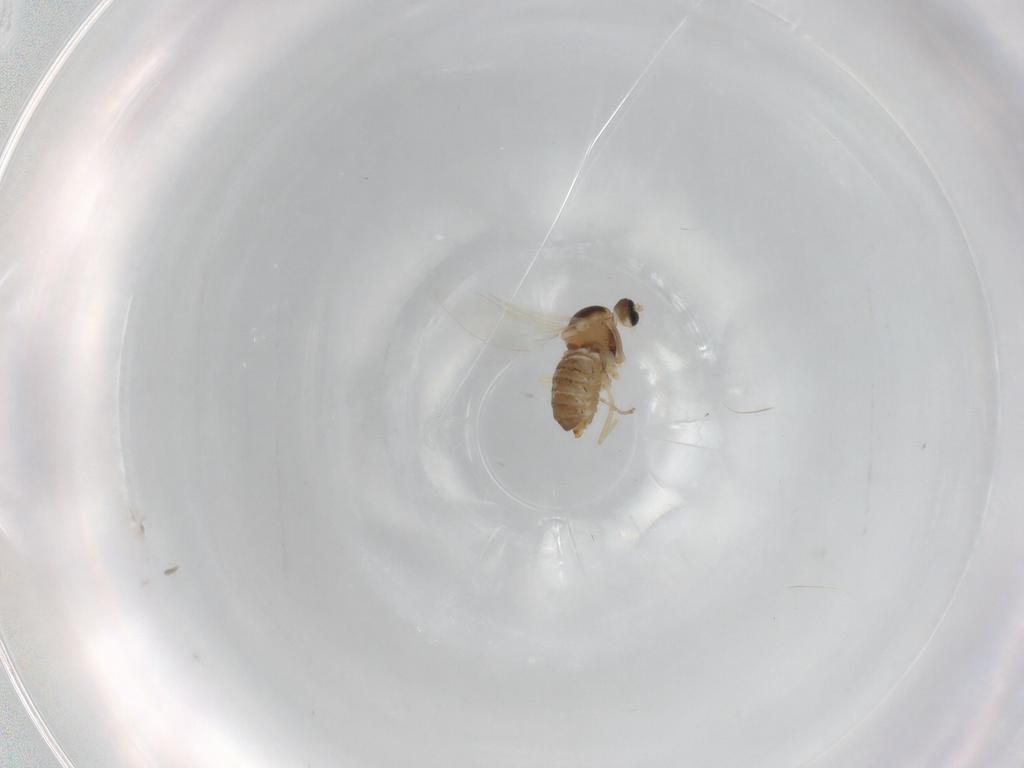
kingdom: Animalia
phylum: Arthropoda
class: Insecta
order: Diptera
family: Cecidomyiidae
